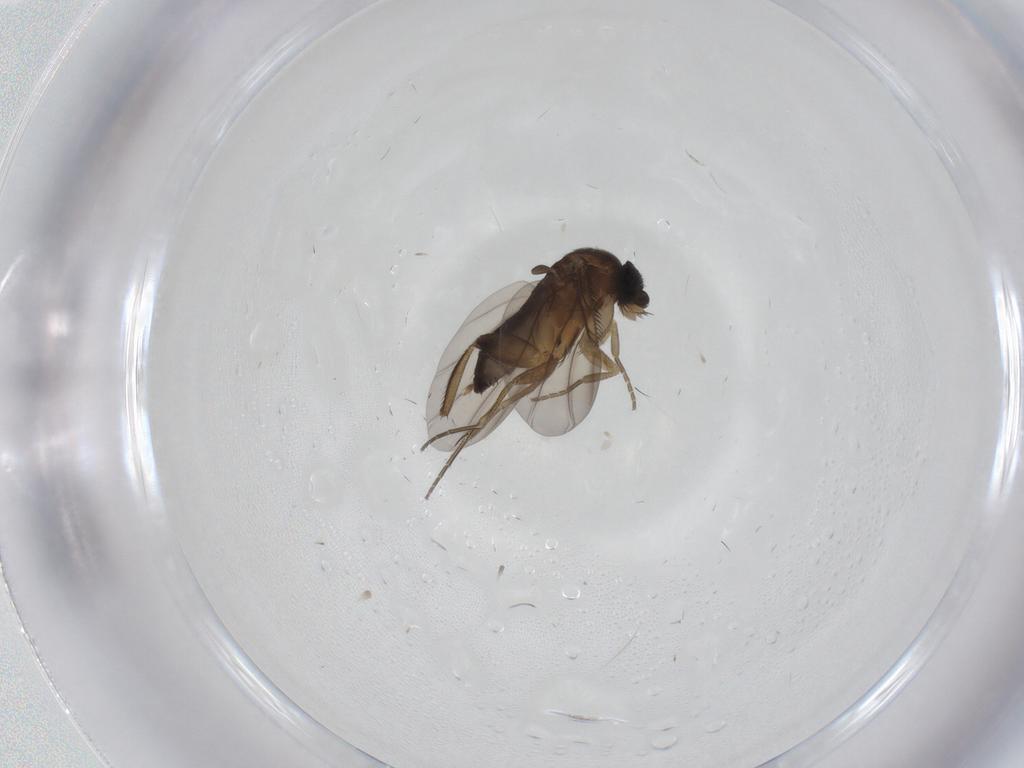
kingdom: Animalia
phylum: Arthropoda
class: Insecta
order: Diptera
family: Phoridae
